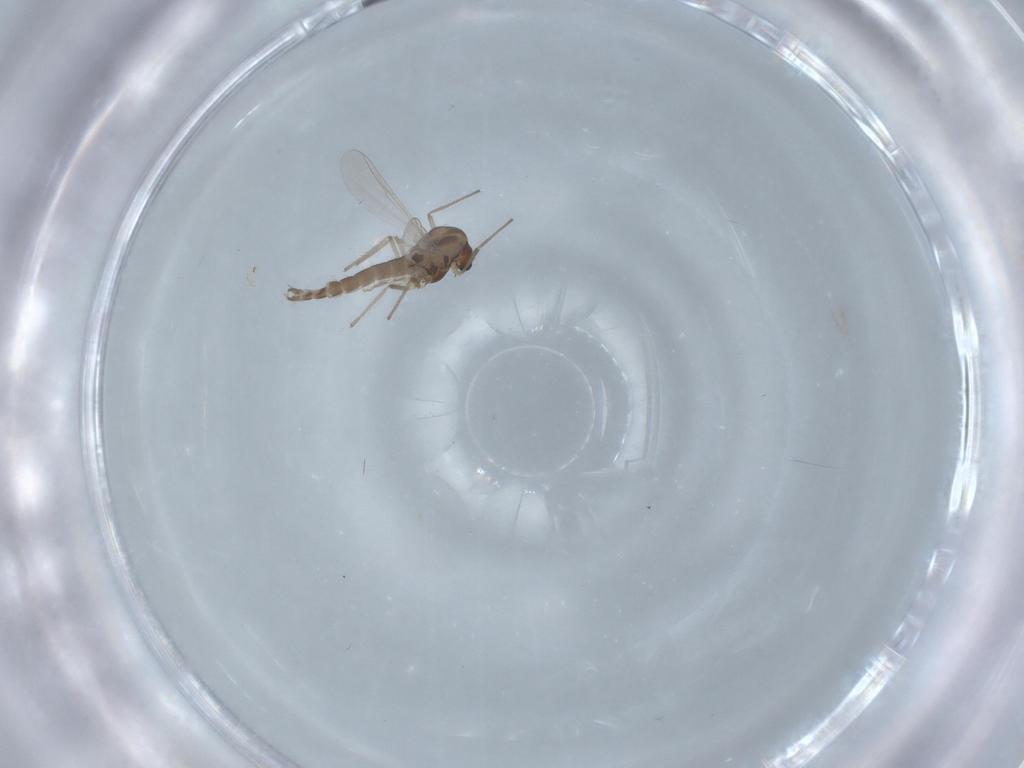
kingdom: Animalia
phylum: Arthropoda
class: Insecta
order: Diptera
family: Chironomidae
